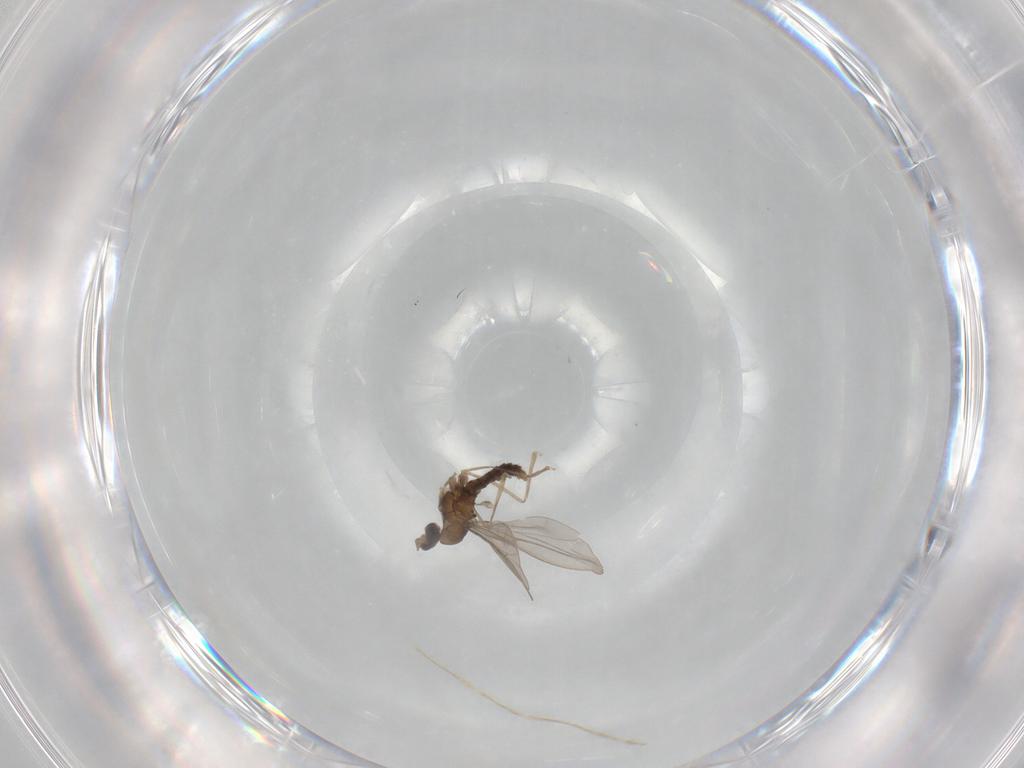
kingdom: Animalia
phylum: Arthropoda
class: Insecta
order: Diptera
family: Cecidomyiidae
